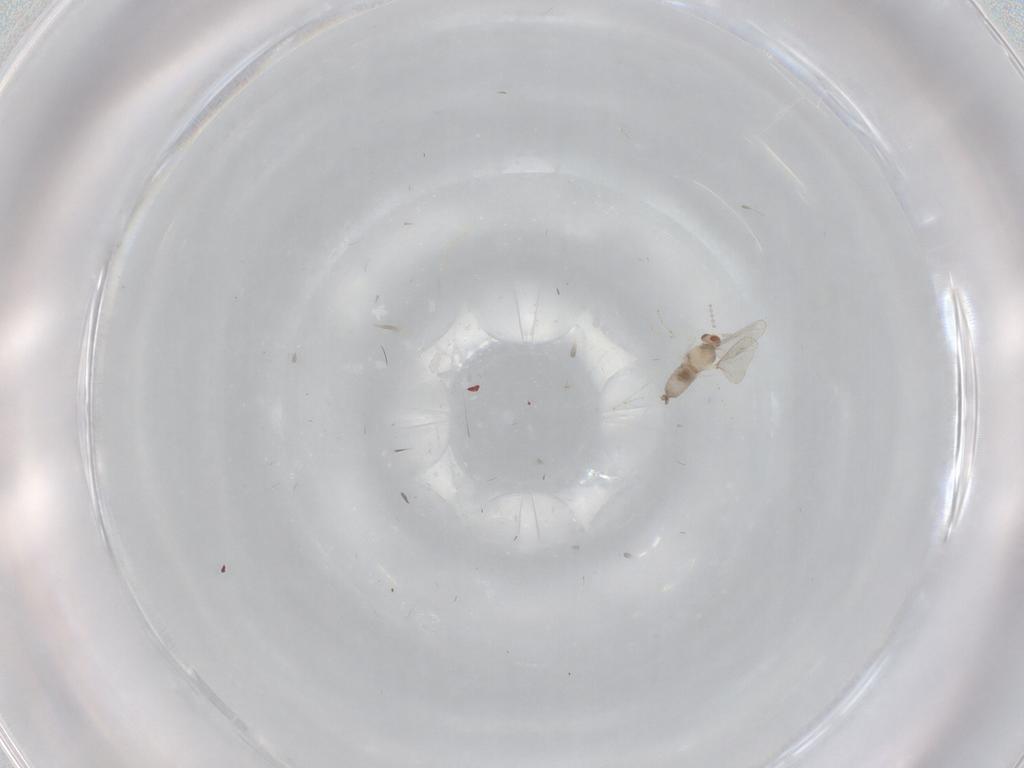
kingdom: Animalia
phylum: Arthropoda
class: Insecta
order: Diptera
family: Cecidomyiidae
